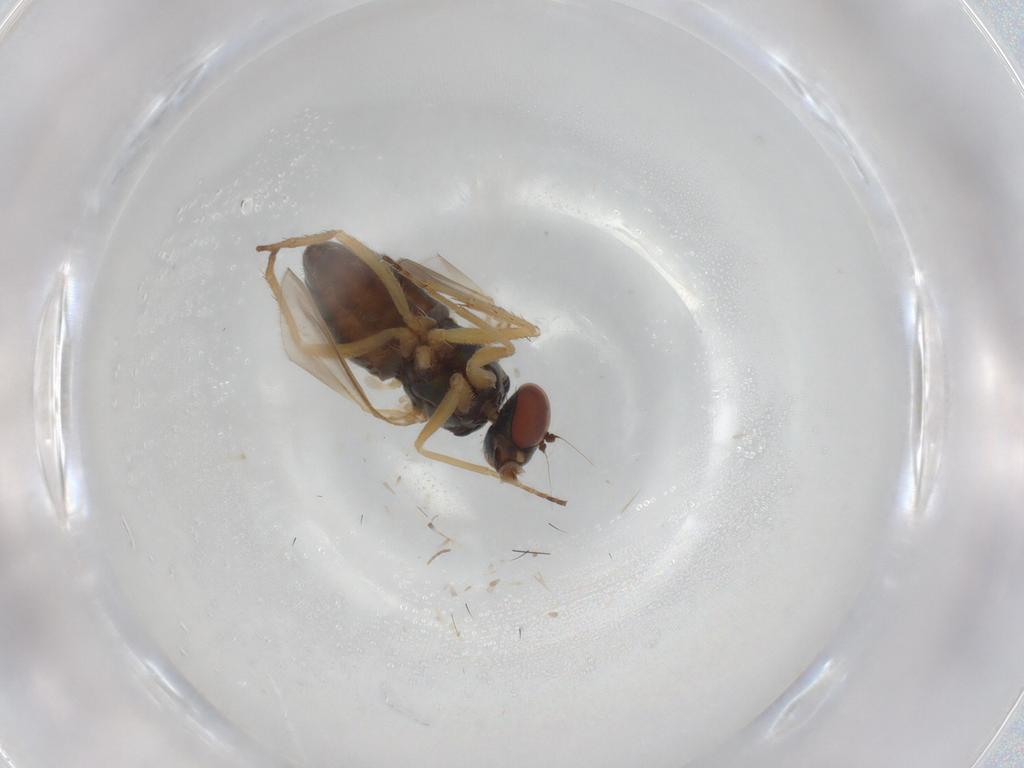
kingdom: Animalia
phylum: Arthropoda
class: Insecta
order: Diptera
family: Dolichopodidae
